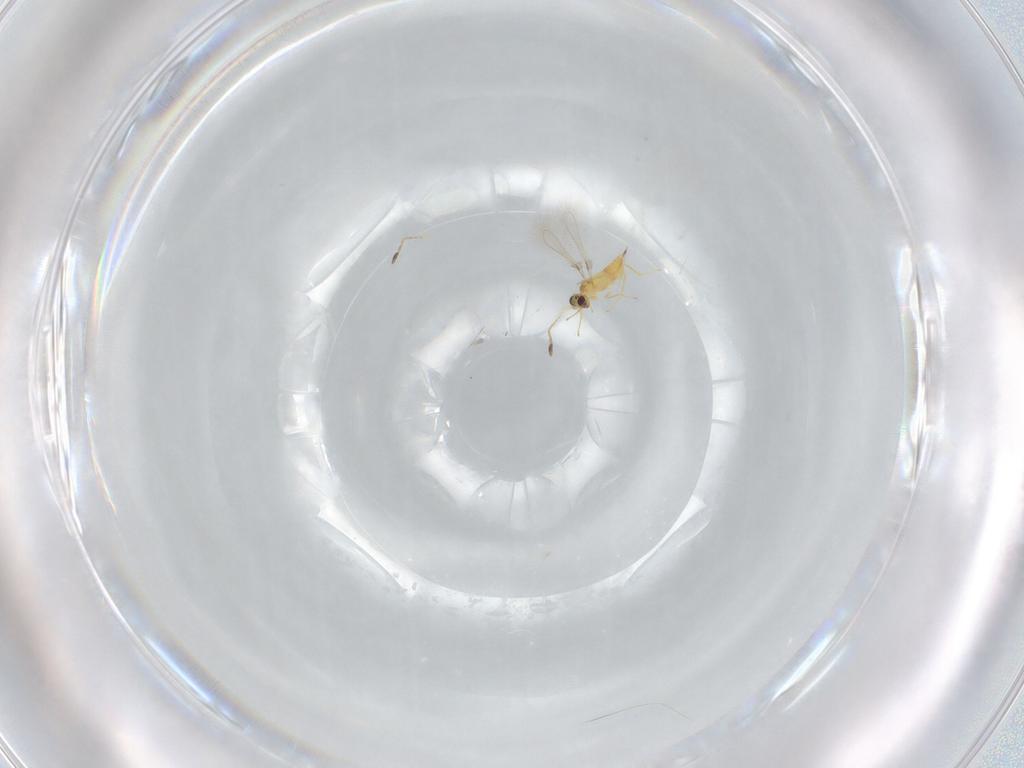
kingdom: Animalia
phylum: Arthropoda
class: Insecta
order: Hymenoptera
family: Mymaridae
